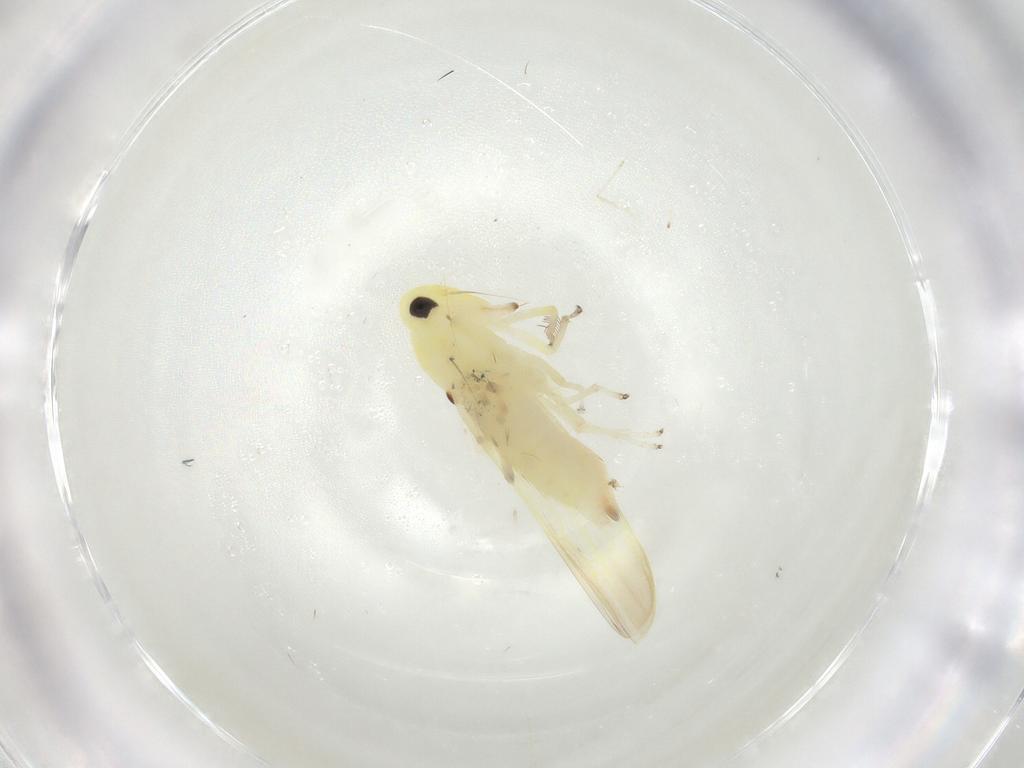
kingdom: Animalia
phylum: Arthropoda
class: Insecta
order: Hemiptera
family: Cicadellidae
